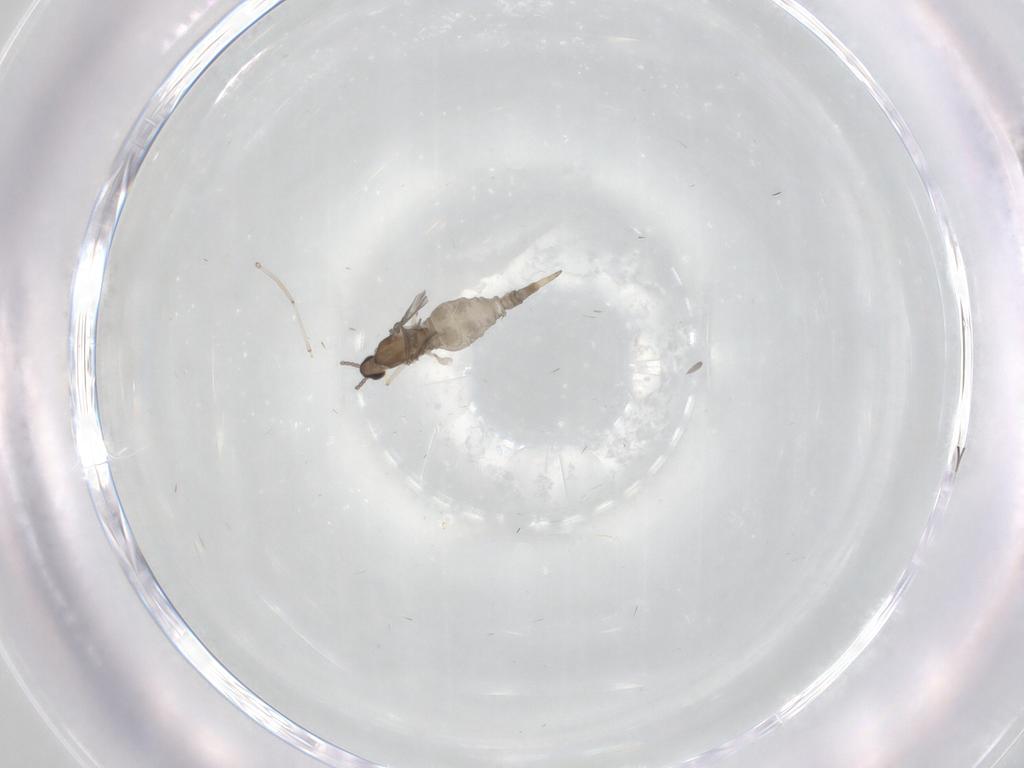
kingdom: Animalia
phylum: Arthropoda
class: Insecta
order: Diptera
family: Cecidomyiidae
